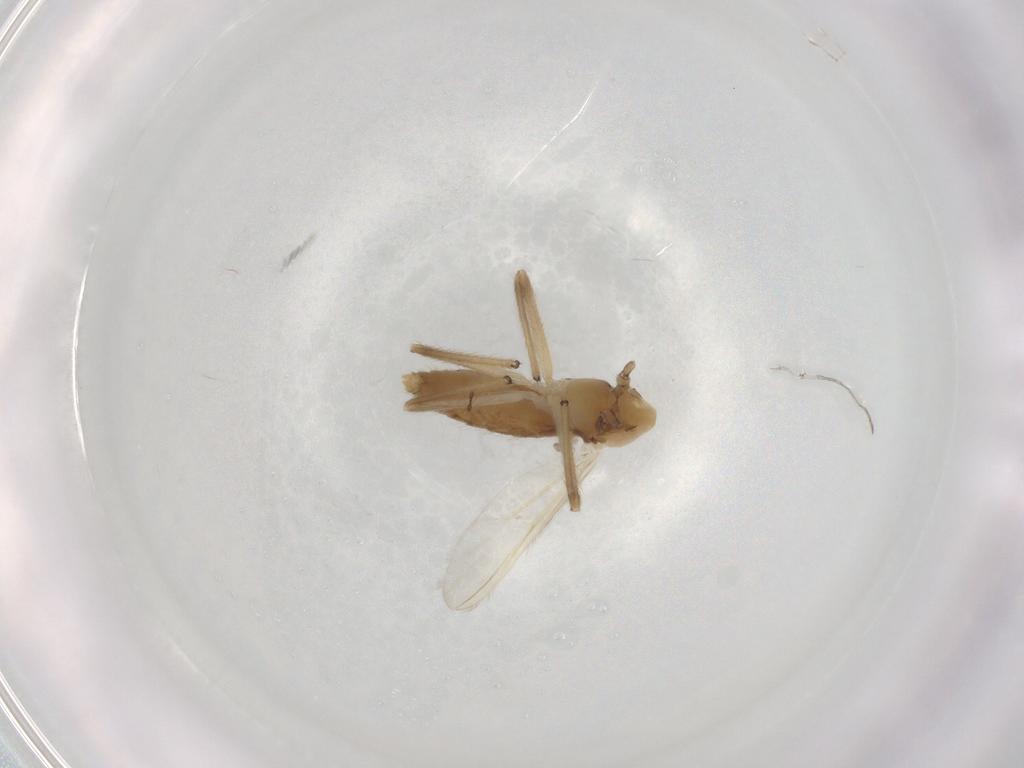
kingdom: Animalia
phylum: Arthropoda
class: Insecta
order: Diptera
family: Chironomidae
